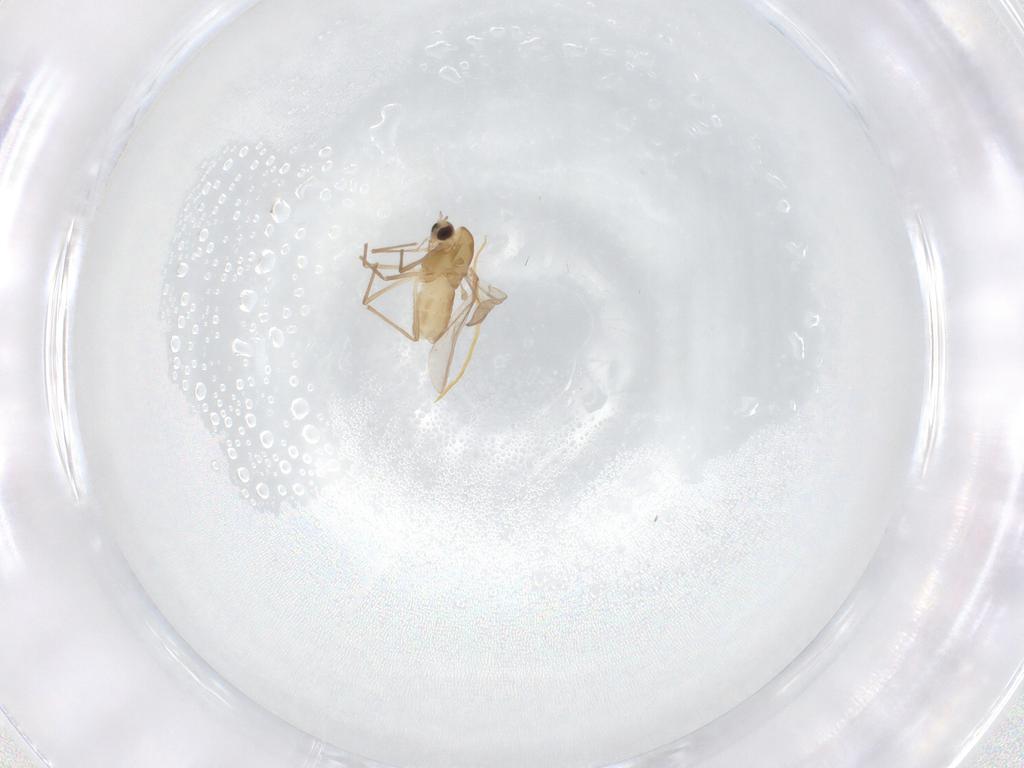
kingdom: Animalia
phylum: Arthropoda
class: Insecta
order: Diptera
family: Chironomidae
